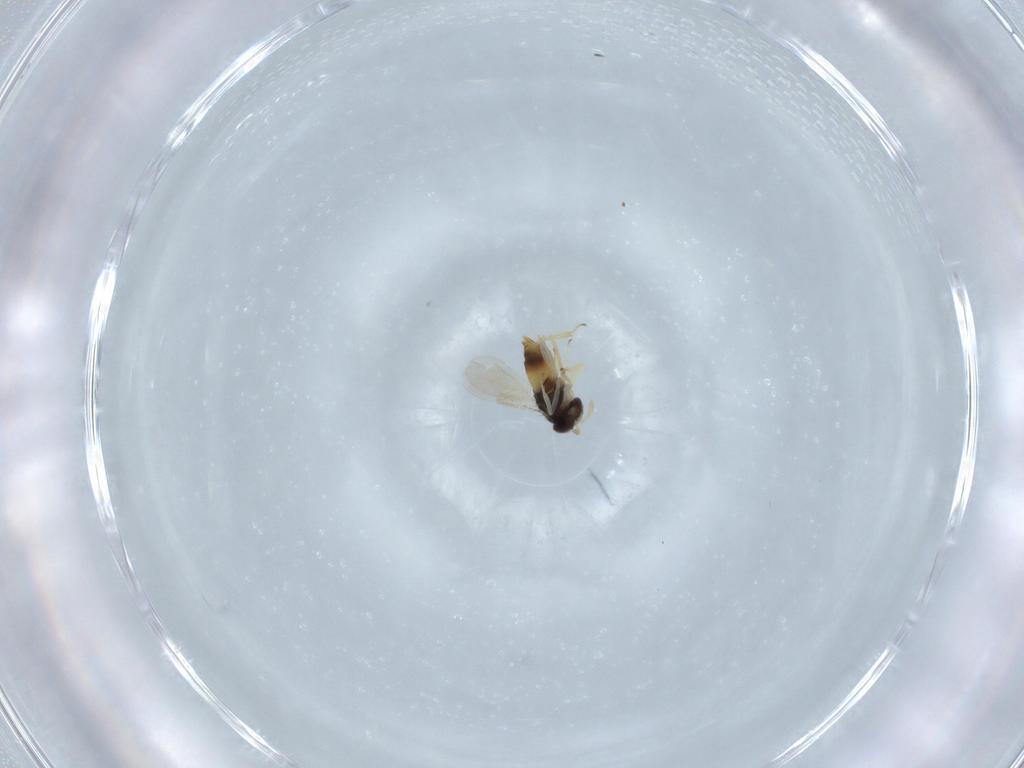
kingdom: Animalia
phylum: Arthropoda
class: Insecta
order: Hymenoptera
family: Aphelinidae
